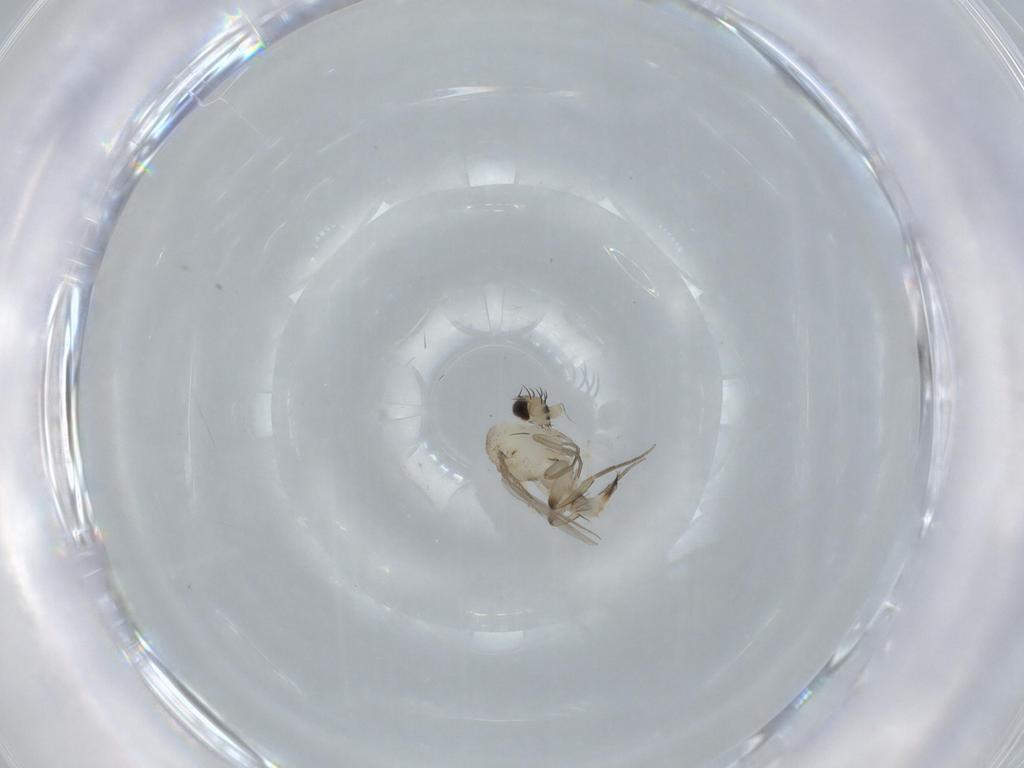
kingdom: Animalia
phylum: Arthropoda
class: Insecta
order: Diptera
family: Phoridae
